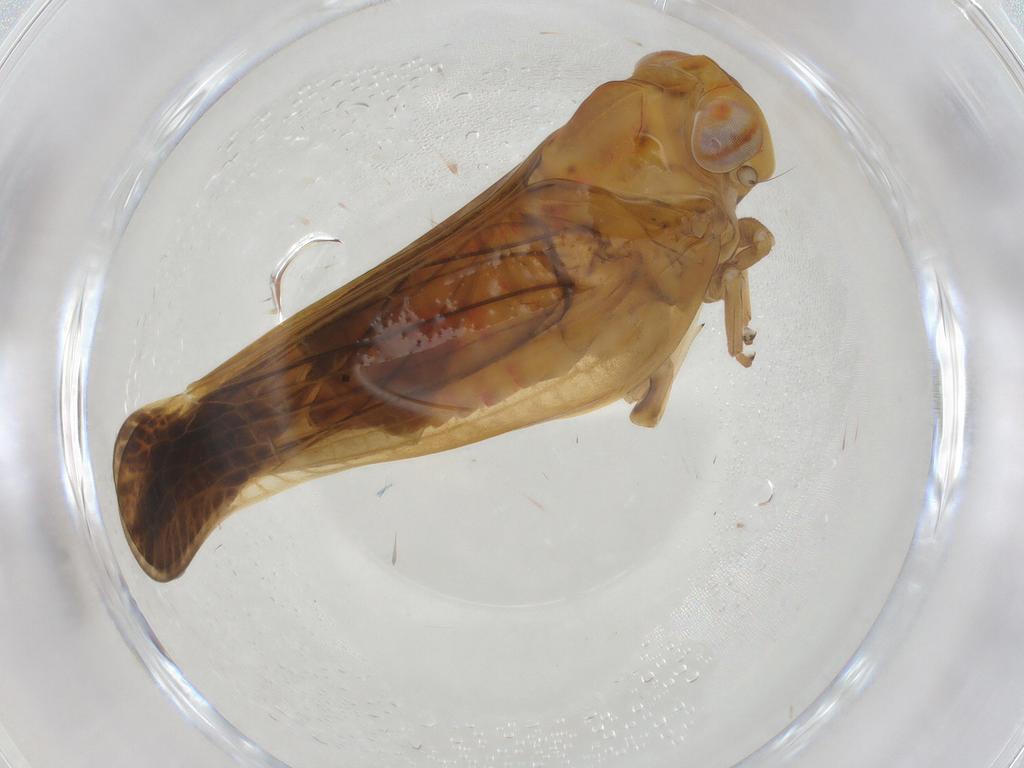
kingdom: Animalia
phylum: Arthropoda
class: Insecta
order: Hemiptera
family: Nogodinidae
